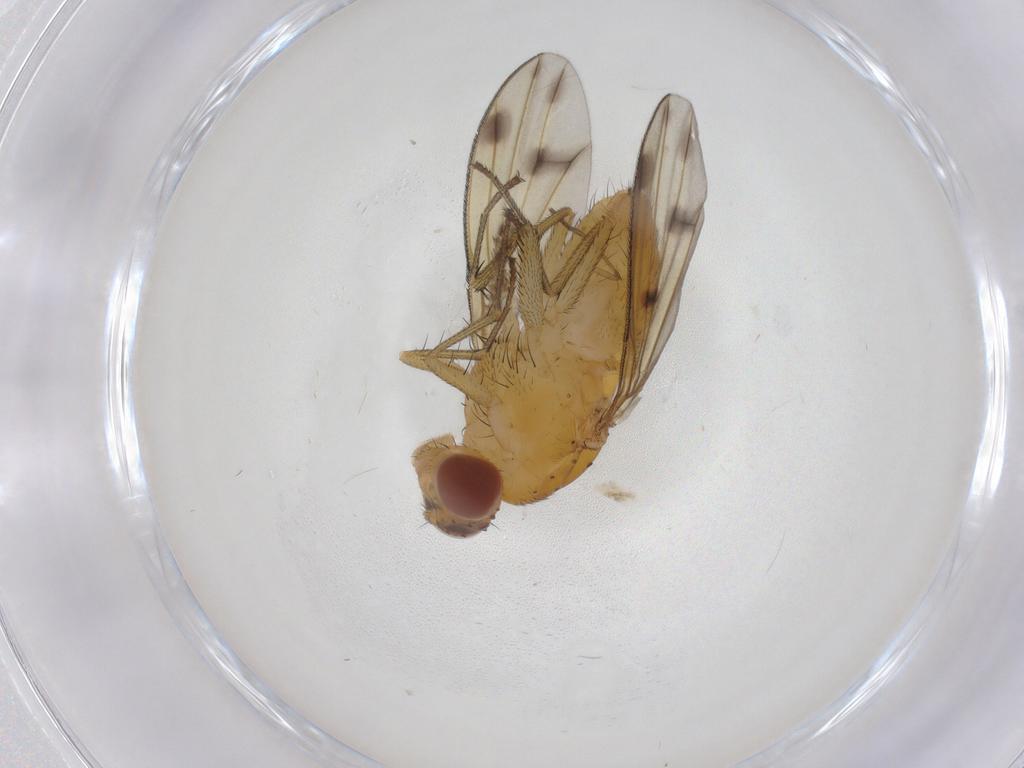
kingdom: Animalia
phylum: Arthropoda
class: Insecta
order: Diptera
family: Psychodidae
